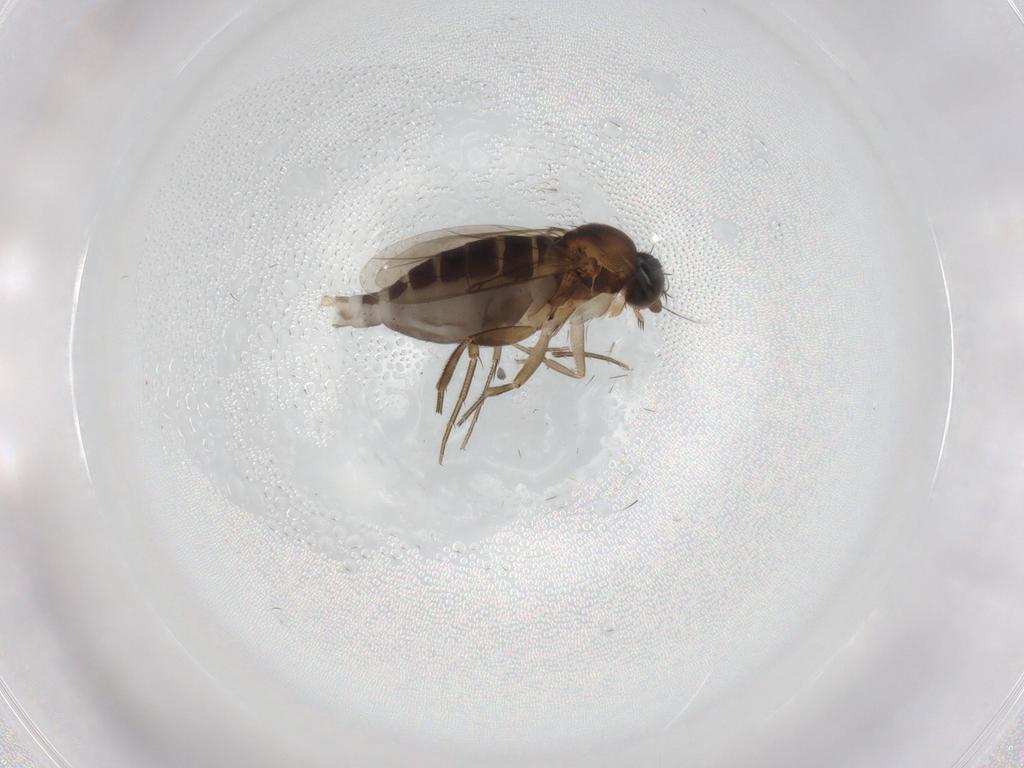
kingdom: Animalia
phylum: Arthropoda
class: Insecta
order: Diptera
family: Phoridae
